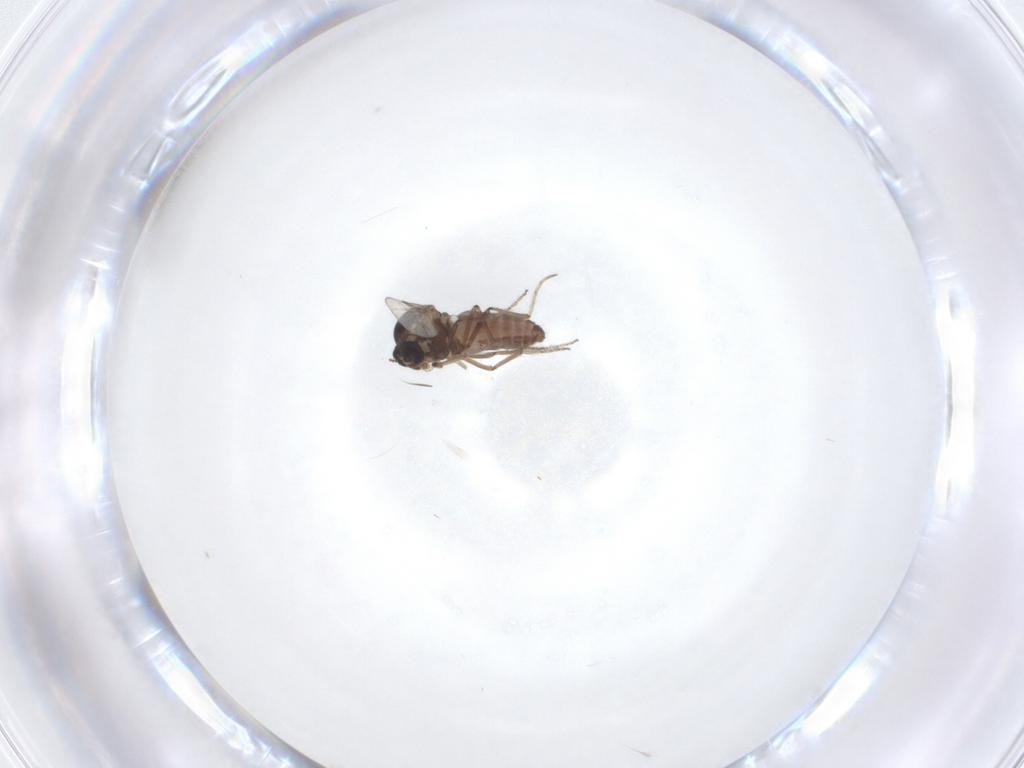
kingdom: Animalia
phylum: Arthropoda
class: Insecta
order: Diptera
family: Ceratopogonidae
